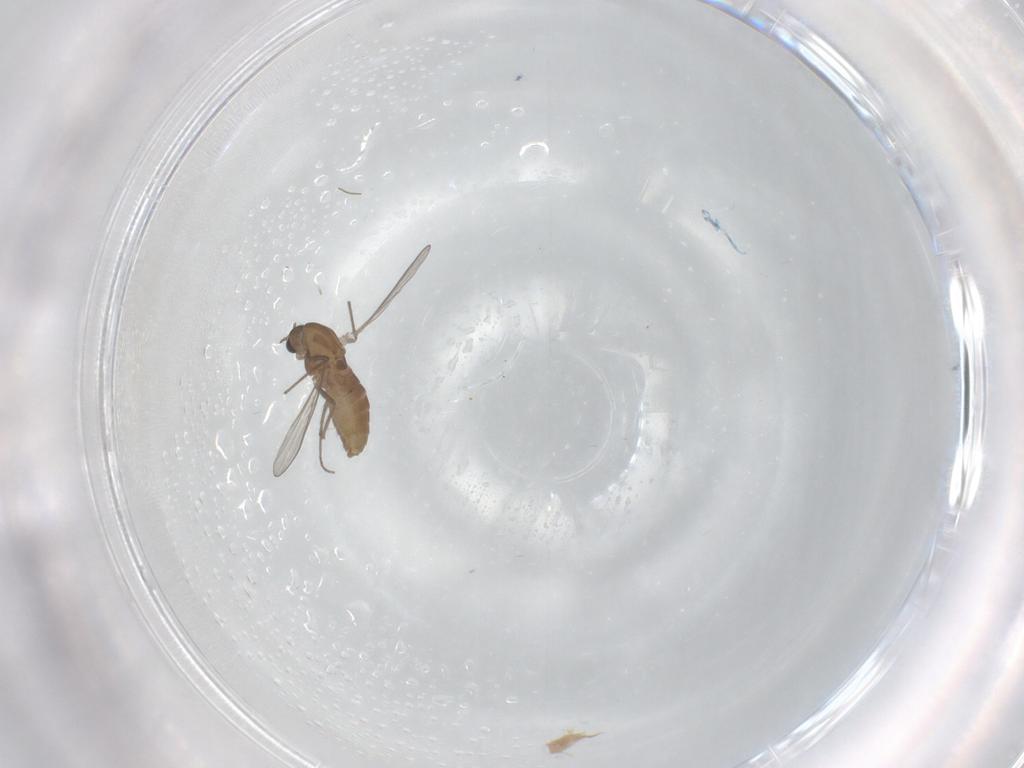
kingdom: Animalia
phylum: Arthropoda
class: Insecta
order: Diptera
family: Chironomidae
